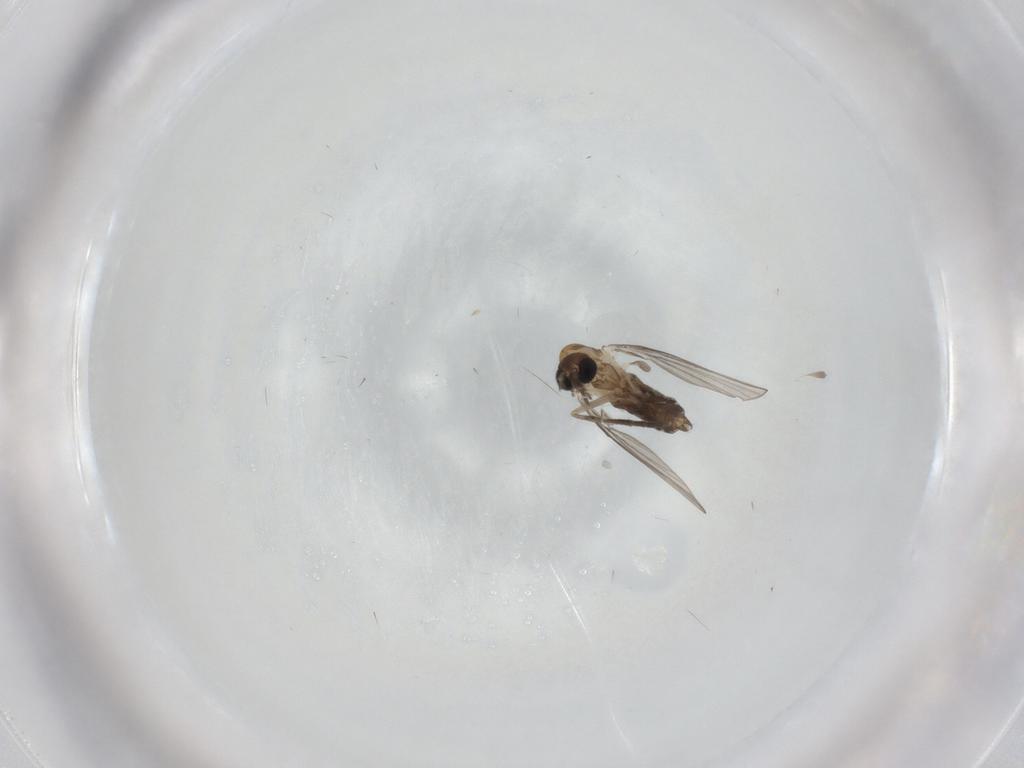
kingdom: Animalia
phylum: Arthropoda
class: Insecta
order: Diptera
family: Psychodidae
